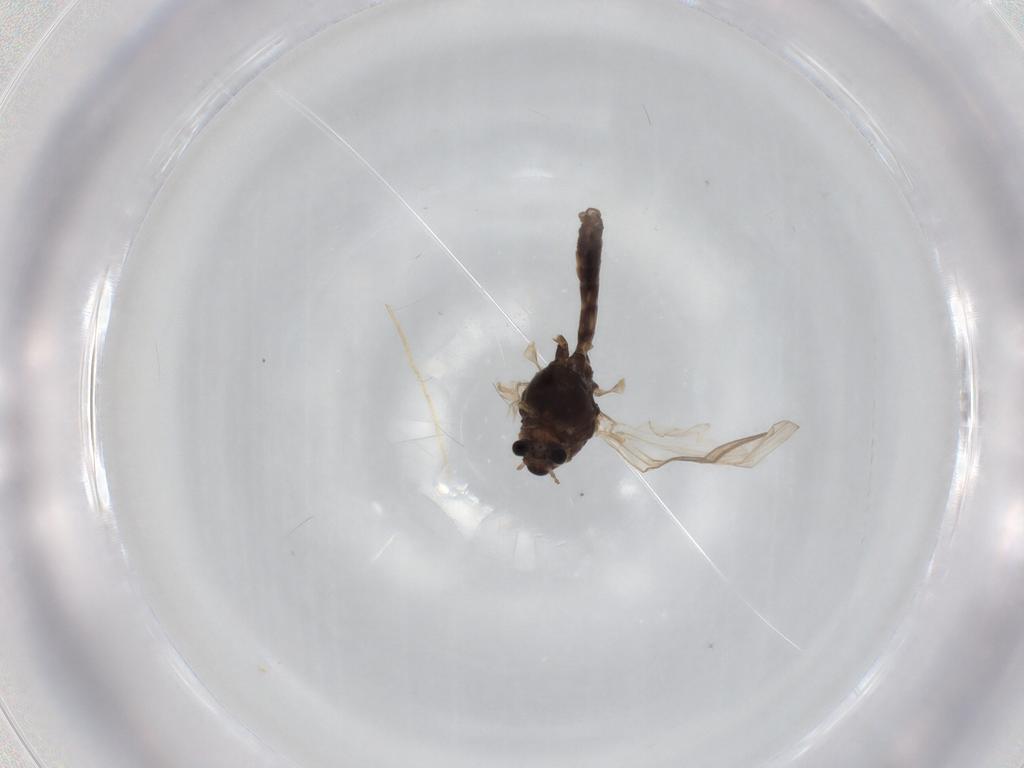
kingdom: Animalia
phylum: Arthropoda
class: Insecta
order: Diptera
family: Chironomidae
